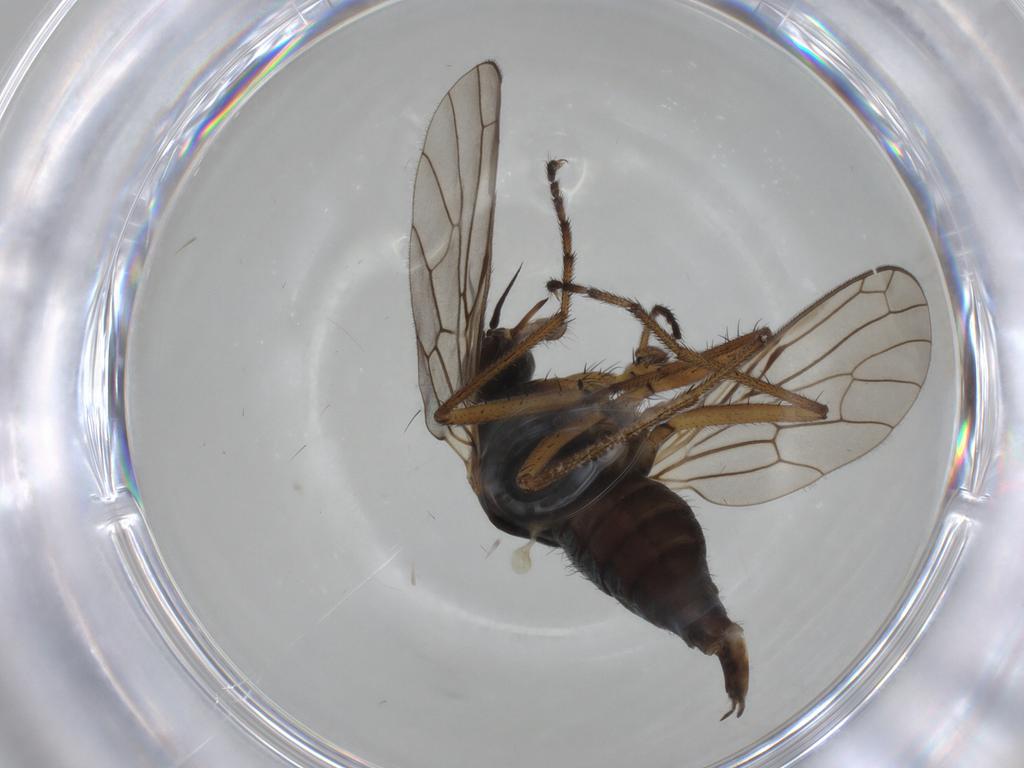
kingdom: Animalia
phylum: Arthropoda
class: Insecta
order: Diptera
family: Empididae
